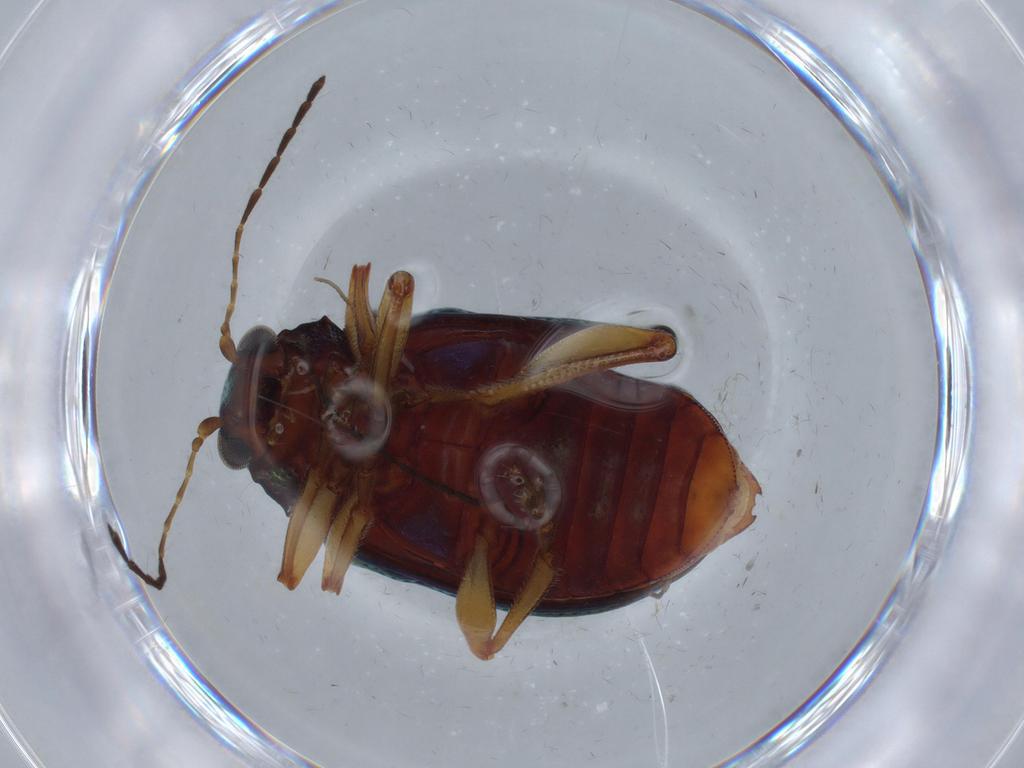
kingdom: Animalia
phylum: Arthropoda
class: Insecta
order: Coleoptera
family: Chrysomelidae
